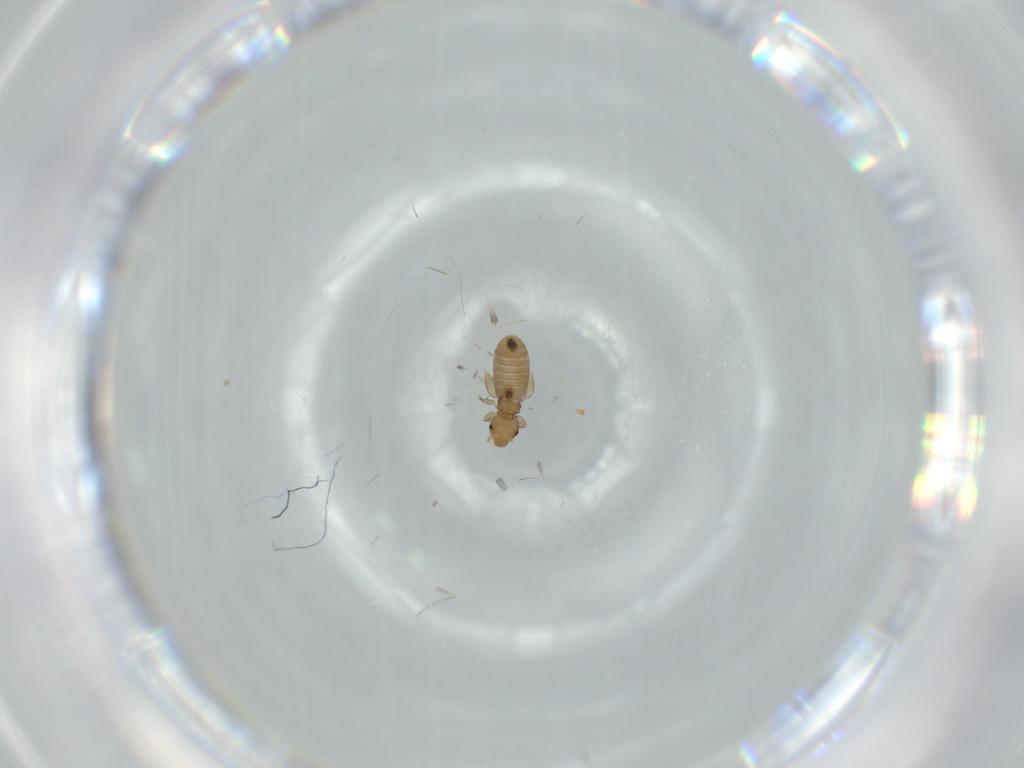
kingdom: Animalia
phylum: Arthropoda
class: Insecta
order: Psocodea
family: Liposcelididae
